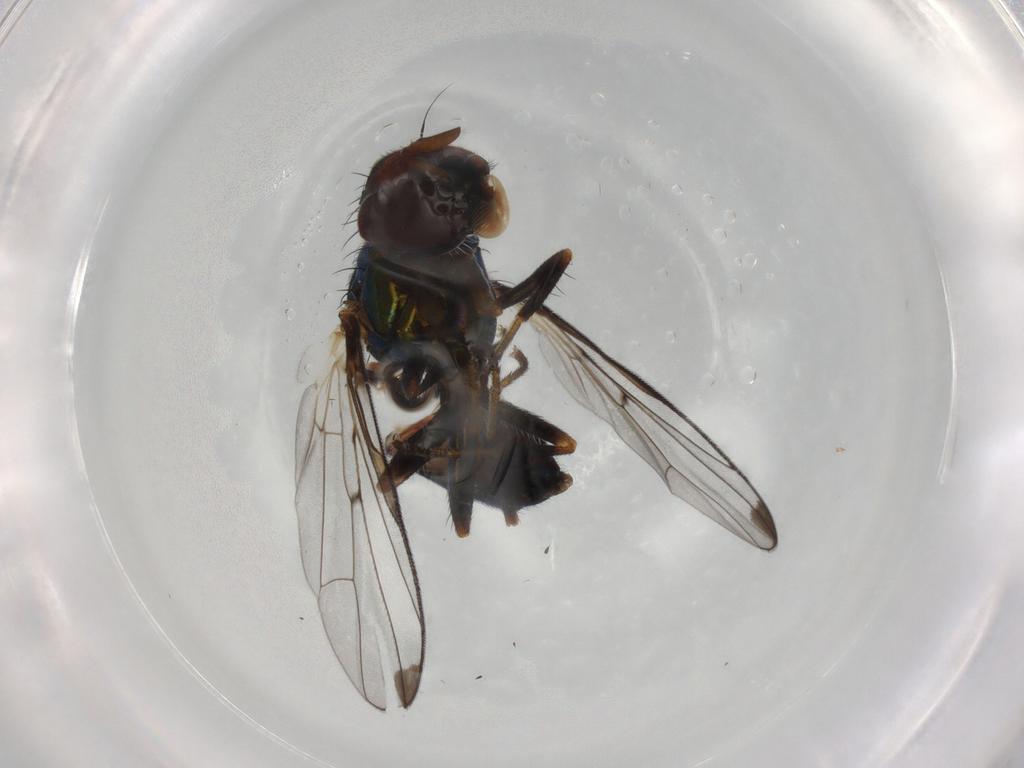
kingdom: Animalia
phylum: Arthropoda
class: Insecta
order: Diptera
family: Platystomatidae
